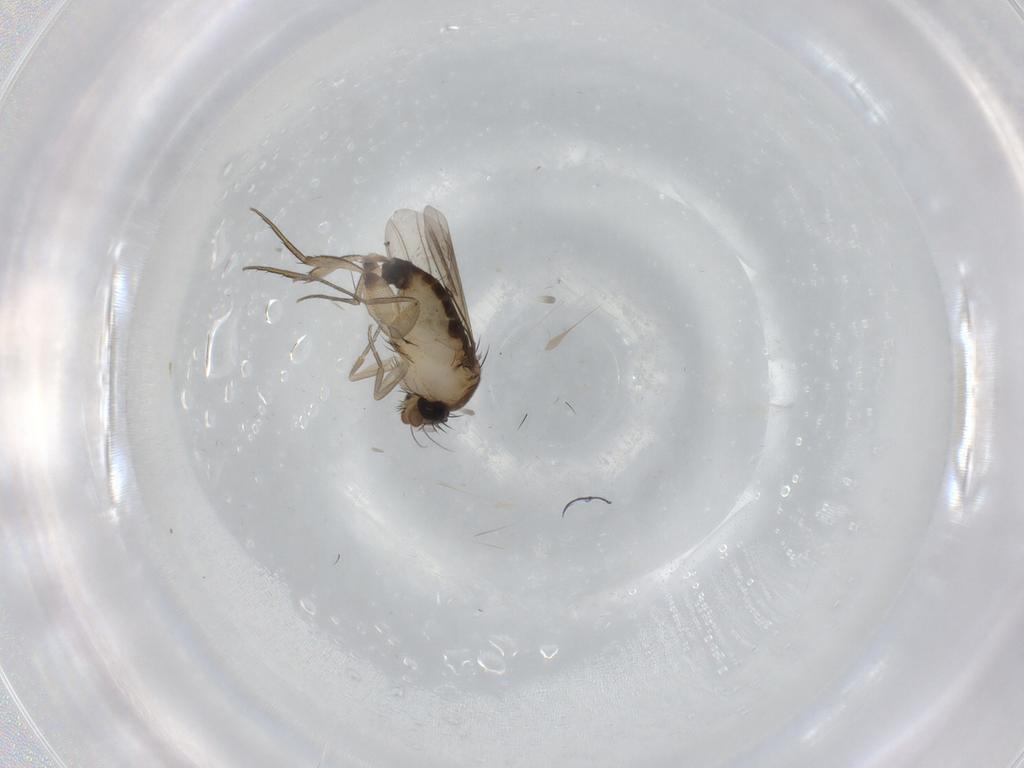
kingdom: Animalia
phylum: Arthropoda
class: Insecta
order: Diptera
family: Phoridae
